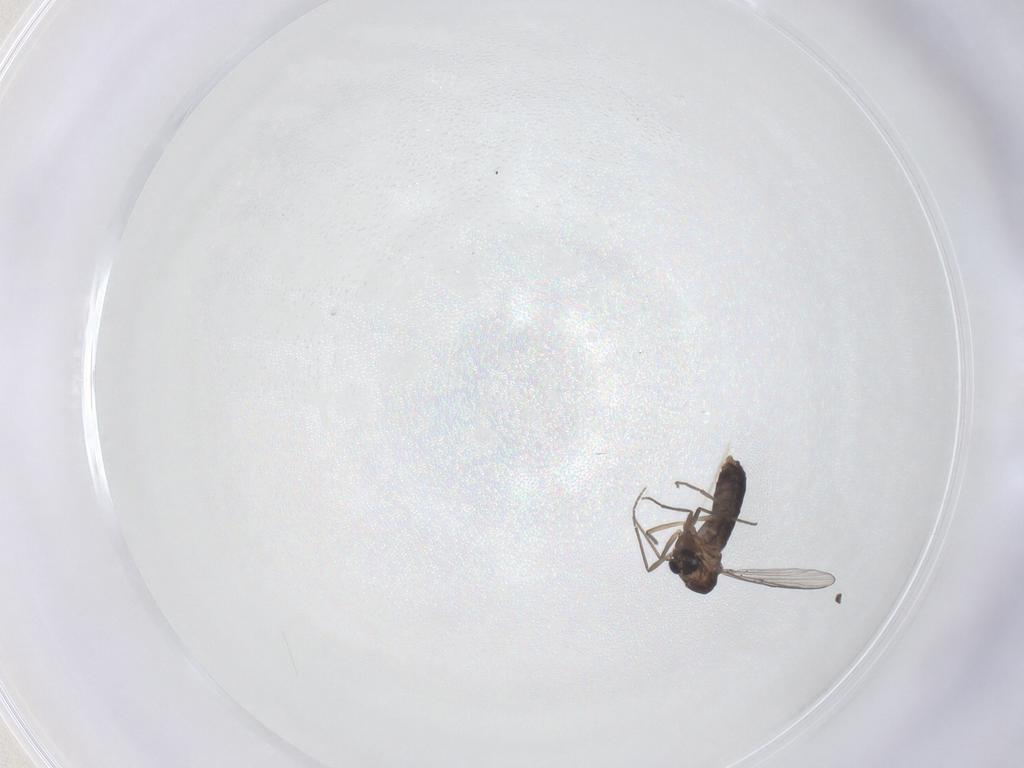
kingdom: Animalia
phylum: Arthropoda
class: Insecta
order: Diptera
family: Chironomidae
